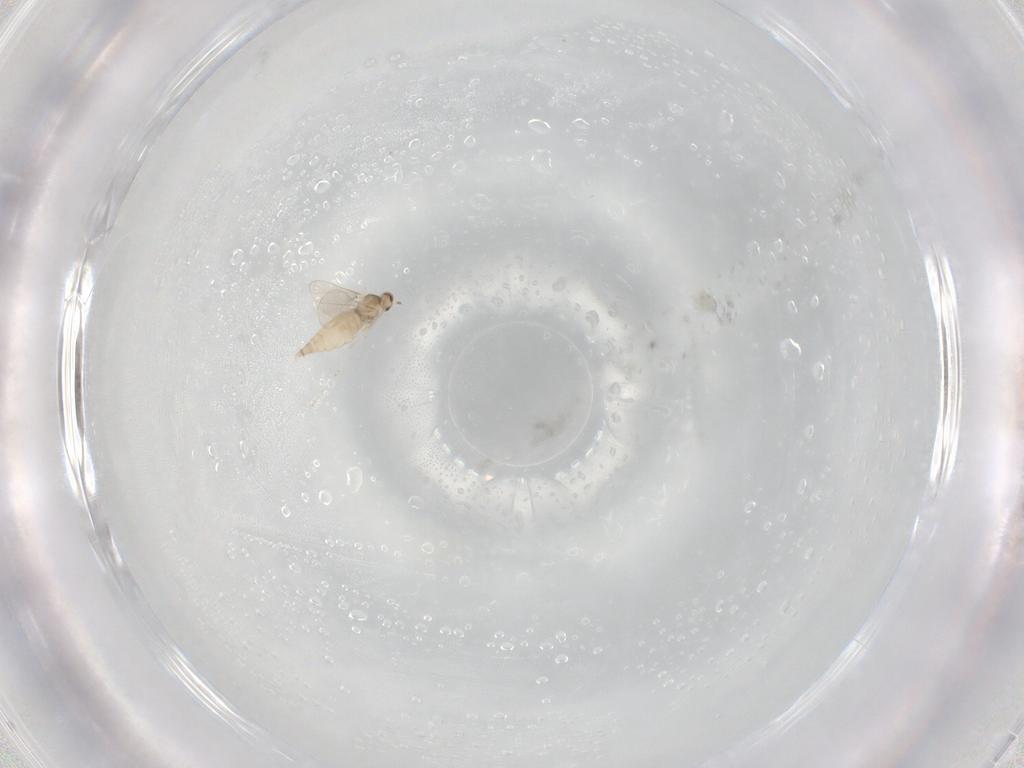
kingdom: Animalia
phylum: Arthropoda
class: Insecta
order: Diptera
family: Cecidomyiidae
